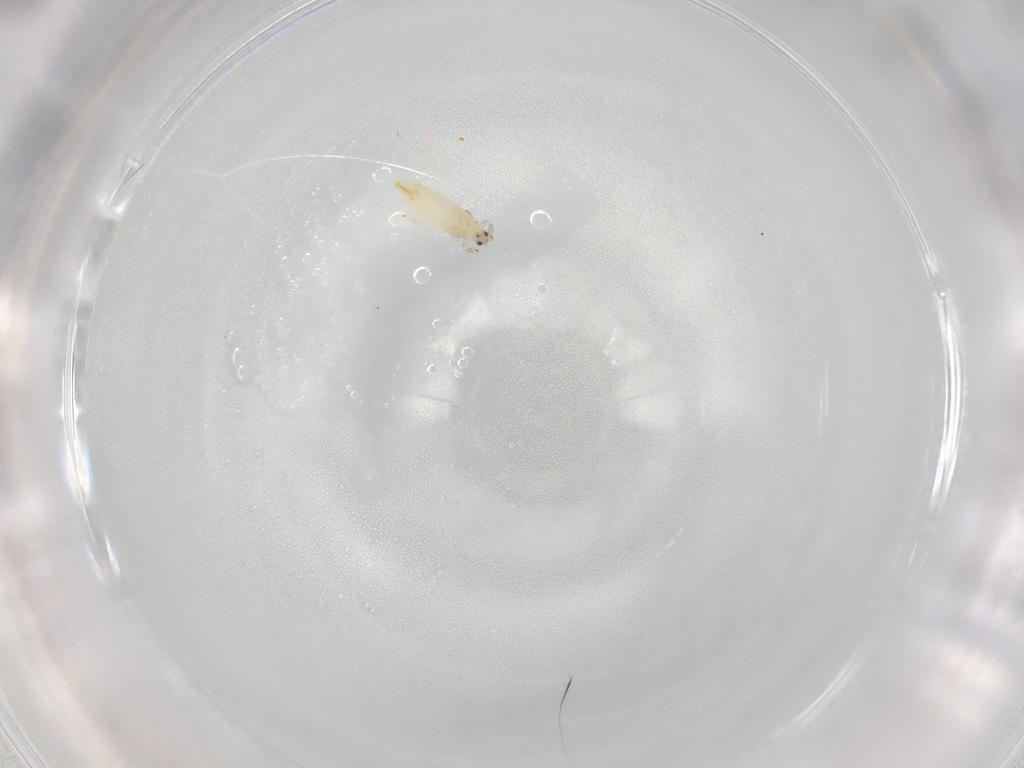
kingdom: Animalia
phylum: Arthropoda
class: Insecta
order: Thysanoptera
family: Thripidae
